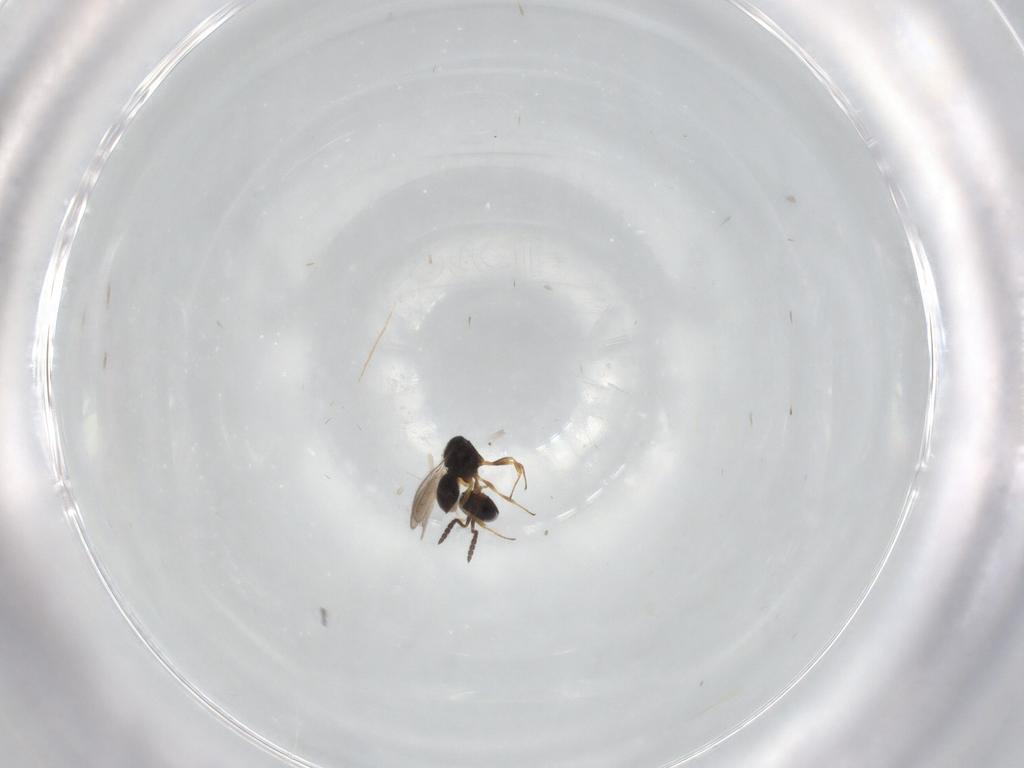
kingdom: Animalia
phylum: Arthropoda
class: Insecta
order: Hymenoptera
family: Scelionidae
